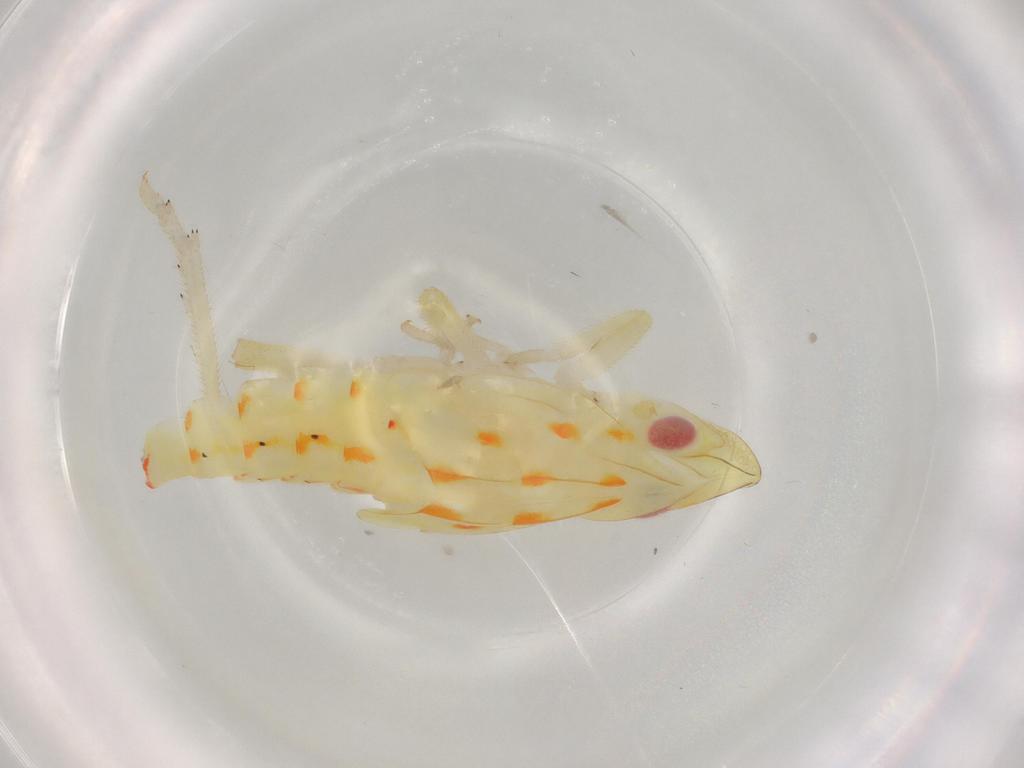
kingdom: Animalia
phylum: Arthropoda
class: Insecta
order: Hemiptera
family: Tropiduchidae
